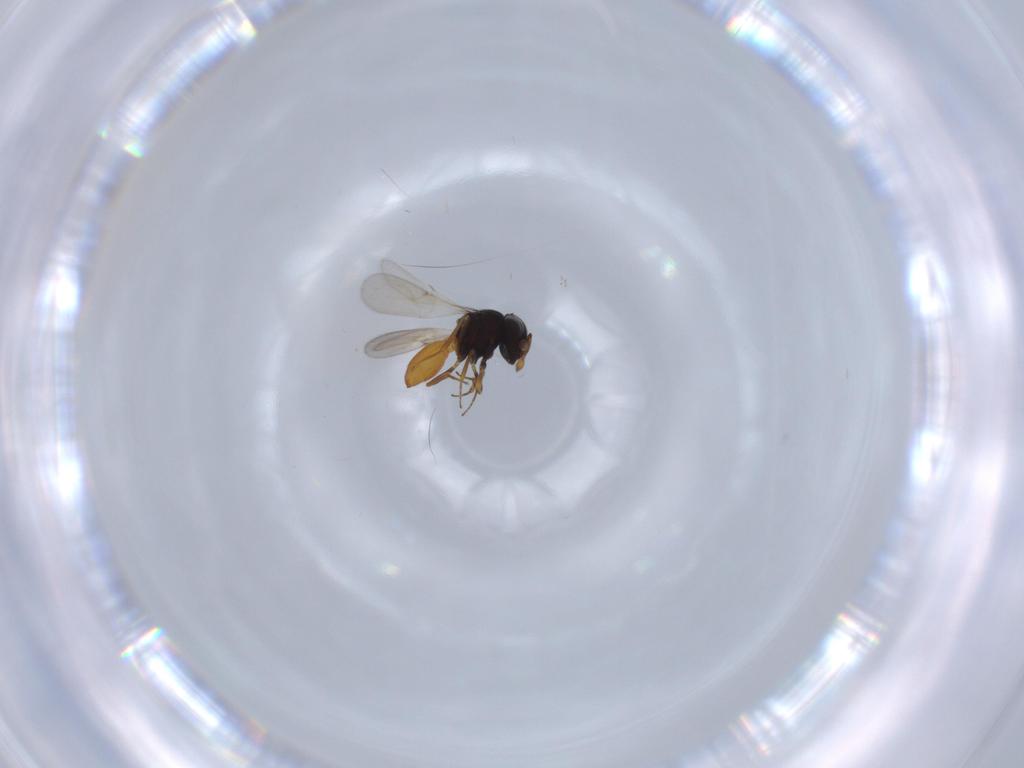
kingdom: Animalia
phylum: Arthropoda
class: Insecta
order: Hymenoptera
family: Scelionidae
